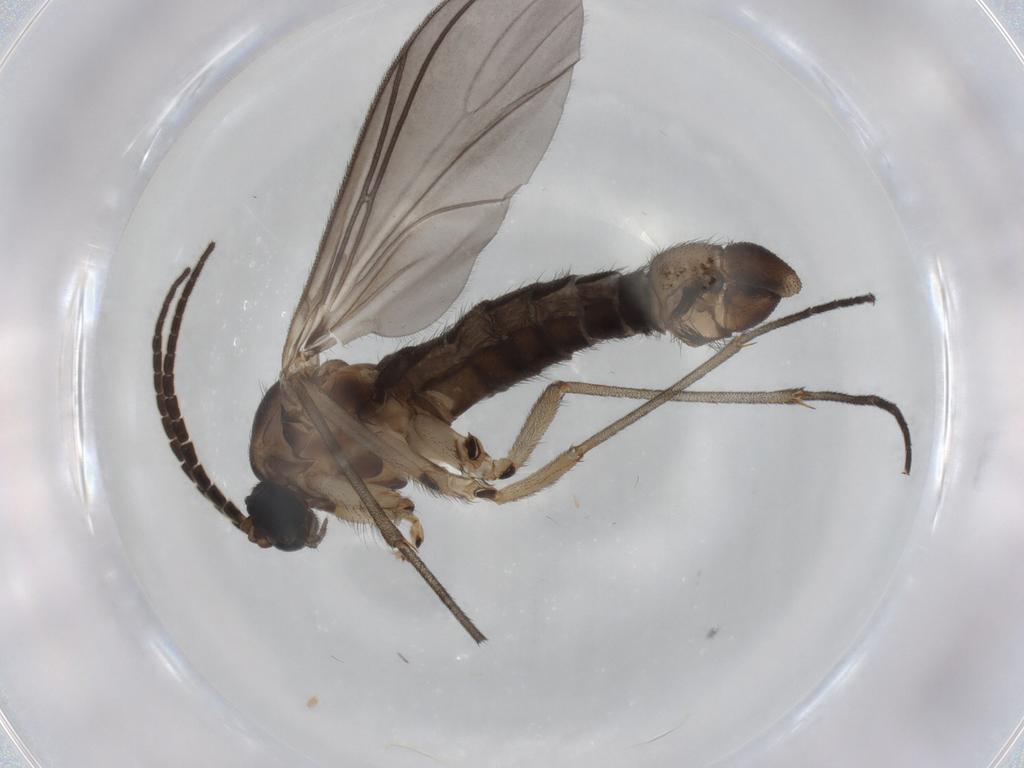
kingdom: Animalia
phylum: Arthropoda
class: Insecta
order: Diptera
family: Sciaridae
